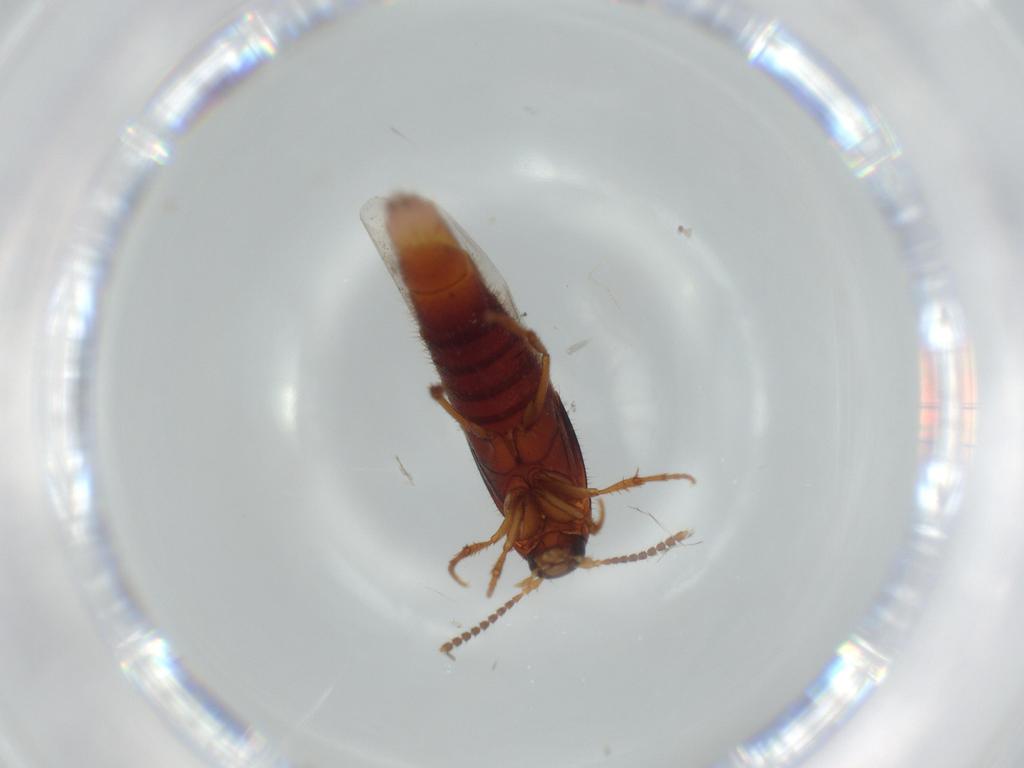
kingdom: Animalia
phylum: Arthropoda
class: Insecta
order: Coleoptera
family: Staphylinidae
